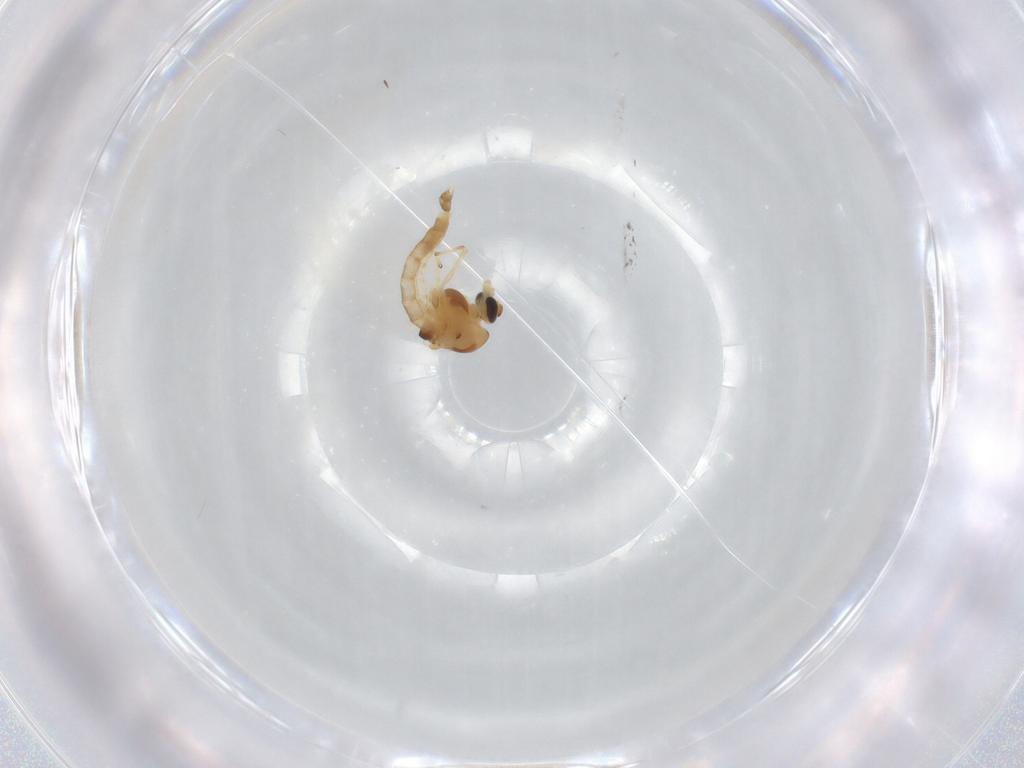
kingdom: Animalia
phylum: Arthropoda
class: Insecta
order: Diptera
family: Chironomidae
